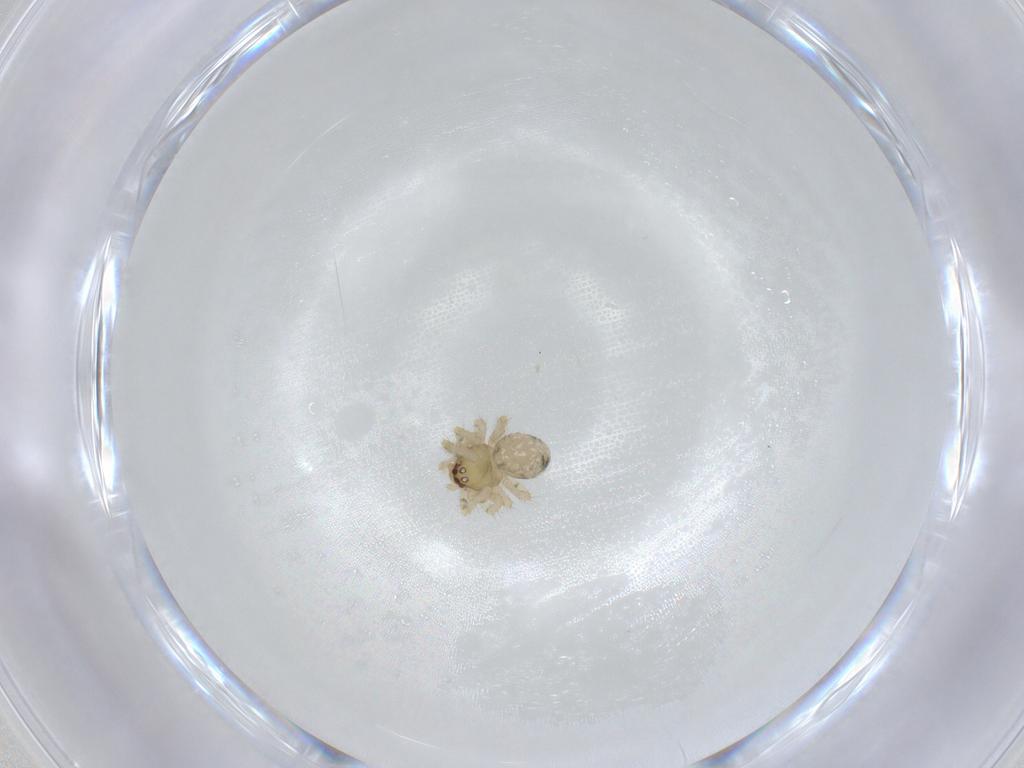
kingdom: Animalia
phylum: Arthropoda
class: Arachnida
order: Araneae
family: Theridiidae
